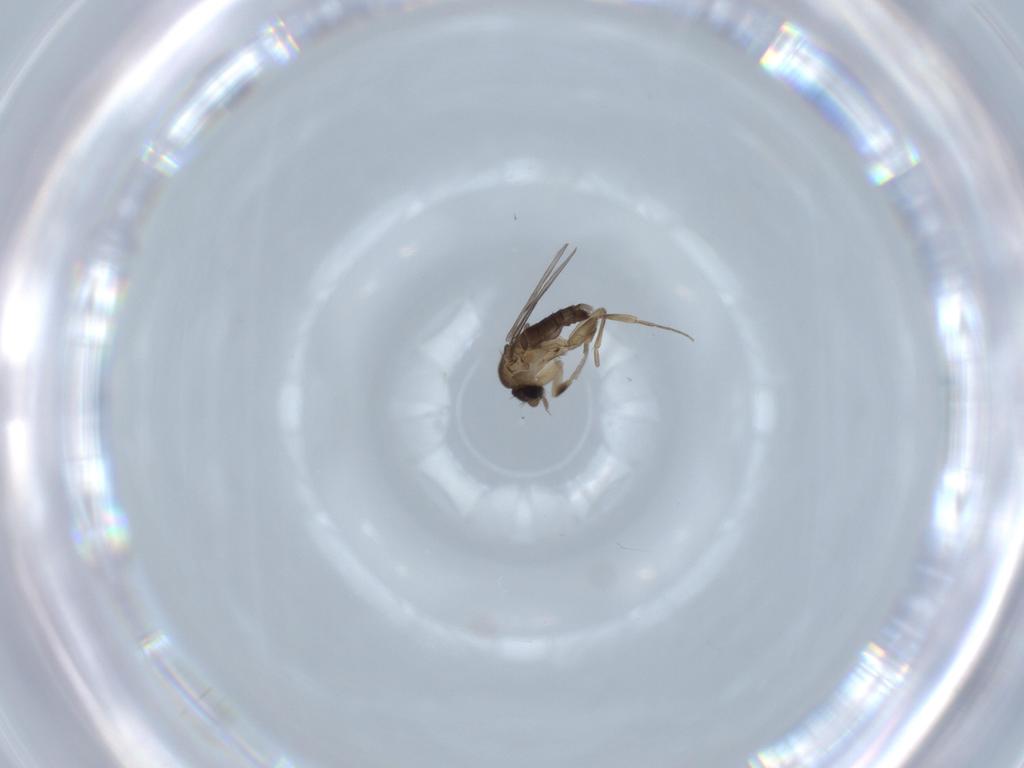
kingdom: Animalia
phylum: Arthropoda
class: Insecta
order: Diptera
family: Phoridae
